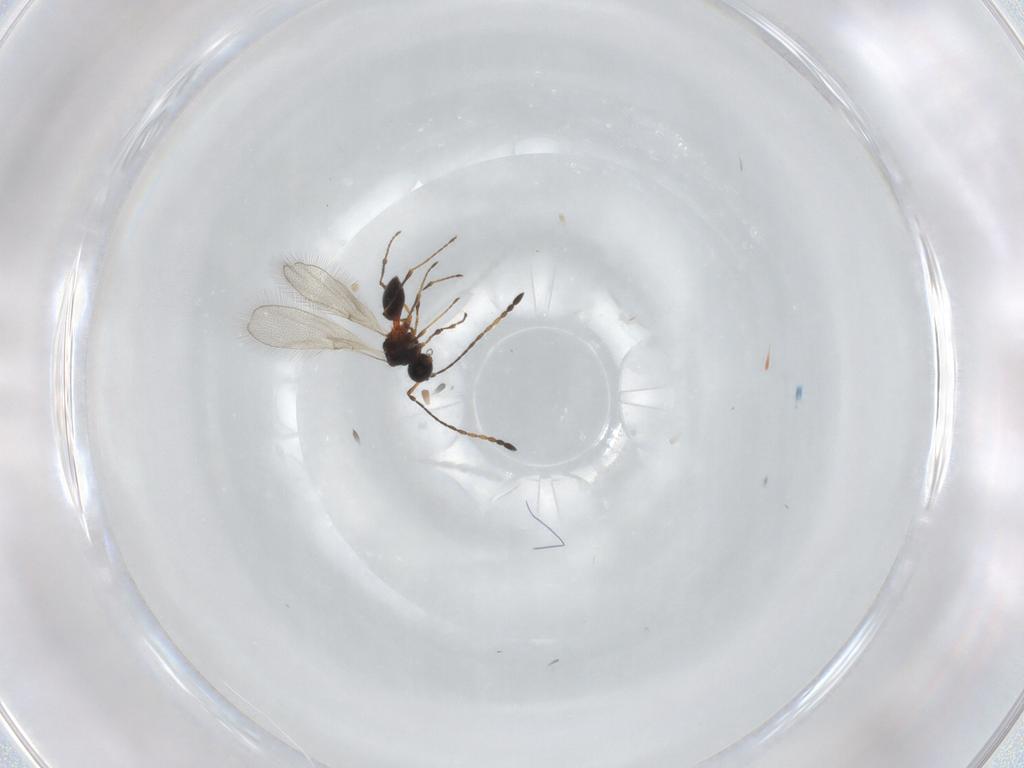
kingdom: Animalia
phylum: Arthropoda
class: Insecta
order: Hymenoptera
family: Diapriidae
